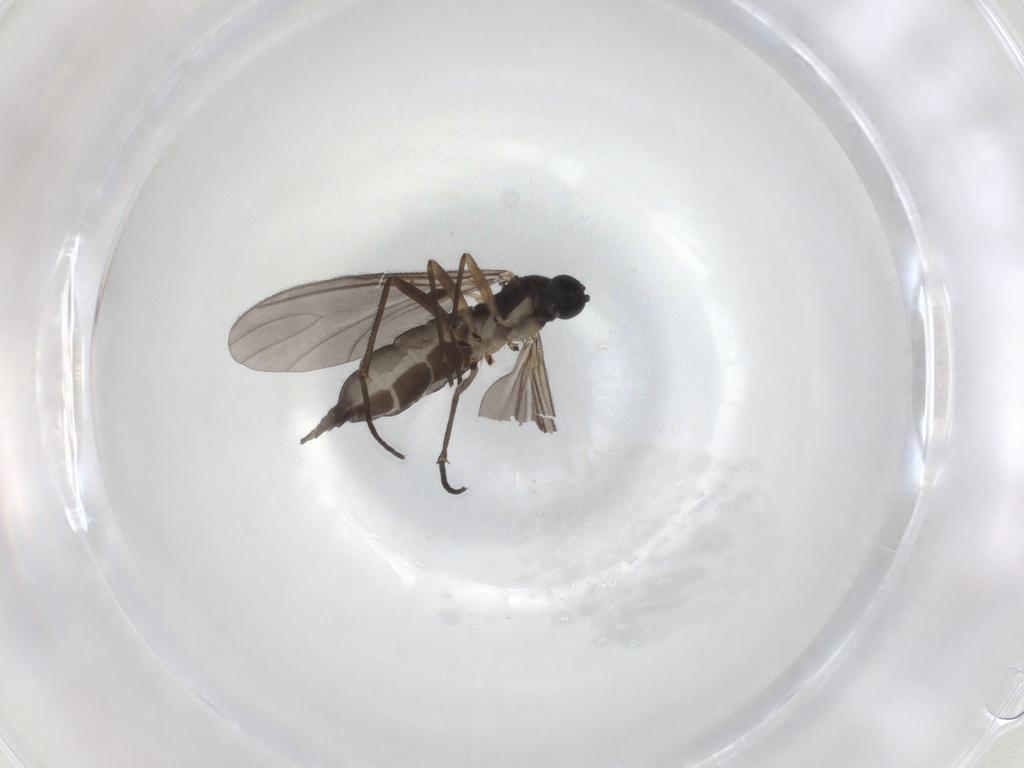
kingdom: Animalia
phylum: Arthropoda
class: Insecta
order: Diptera
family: Sciaridae
